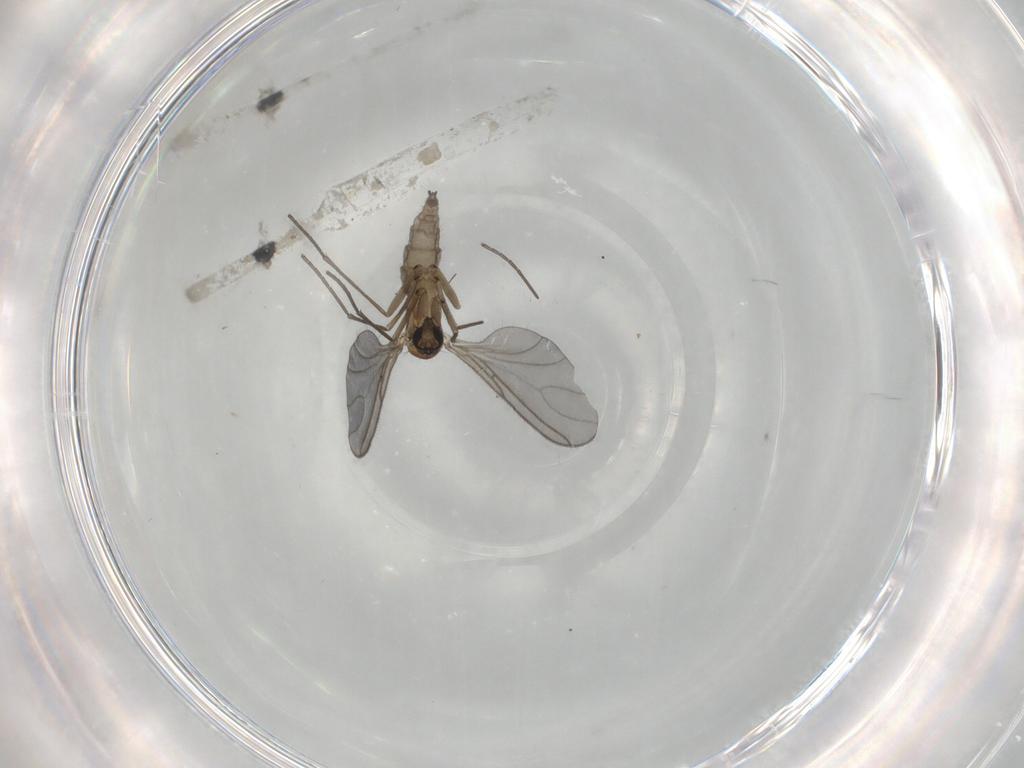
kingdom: Animalia
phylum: Arthropoda
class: Insecta
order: Diptera
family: Sciaridae
